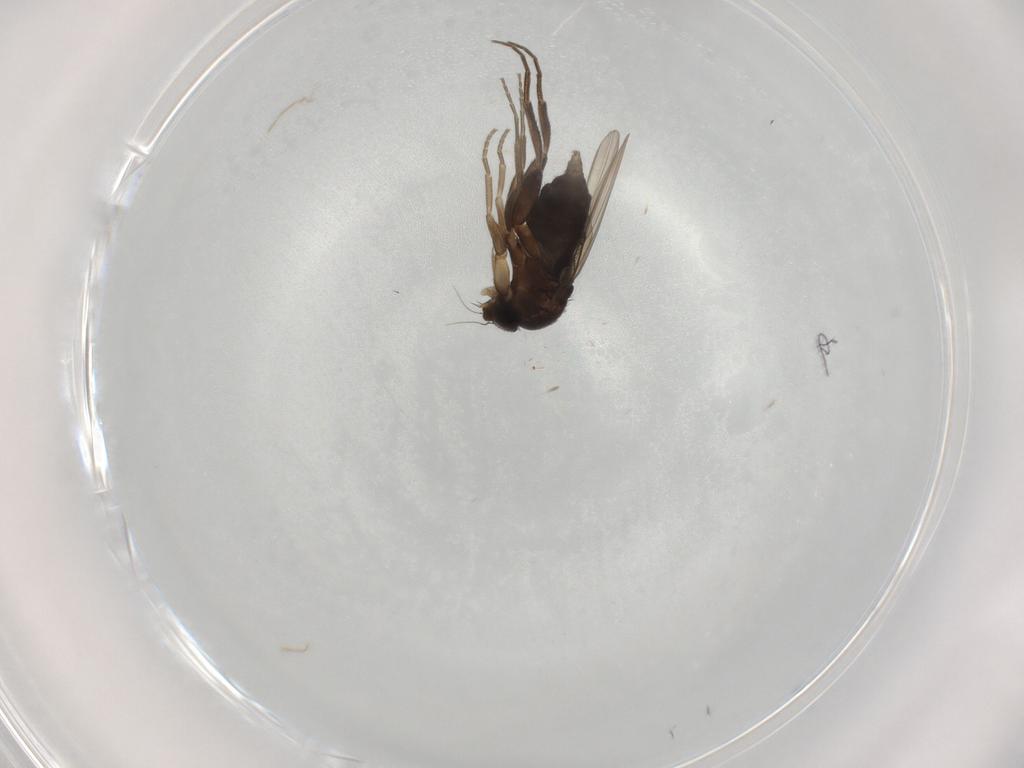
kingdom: Animalia
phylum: Arthropoda
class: Insecta
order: Diptera
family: Phoridae
